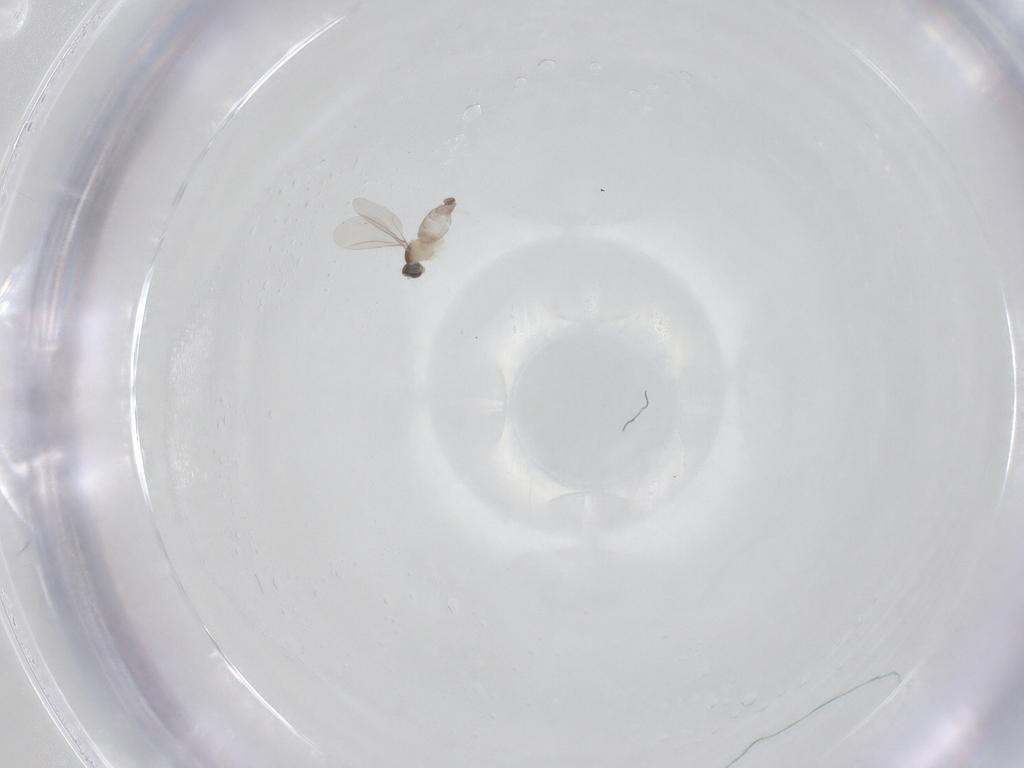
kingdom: Animalia
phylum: Arthropoda
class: Insecta
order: Diptera
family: Cecidomyiidae
